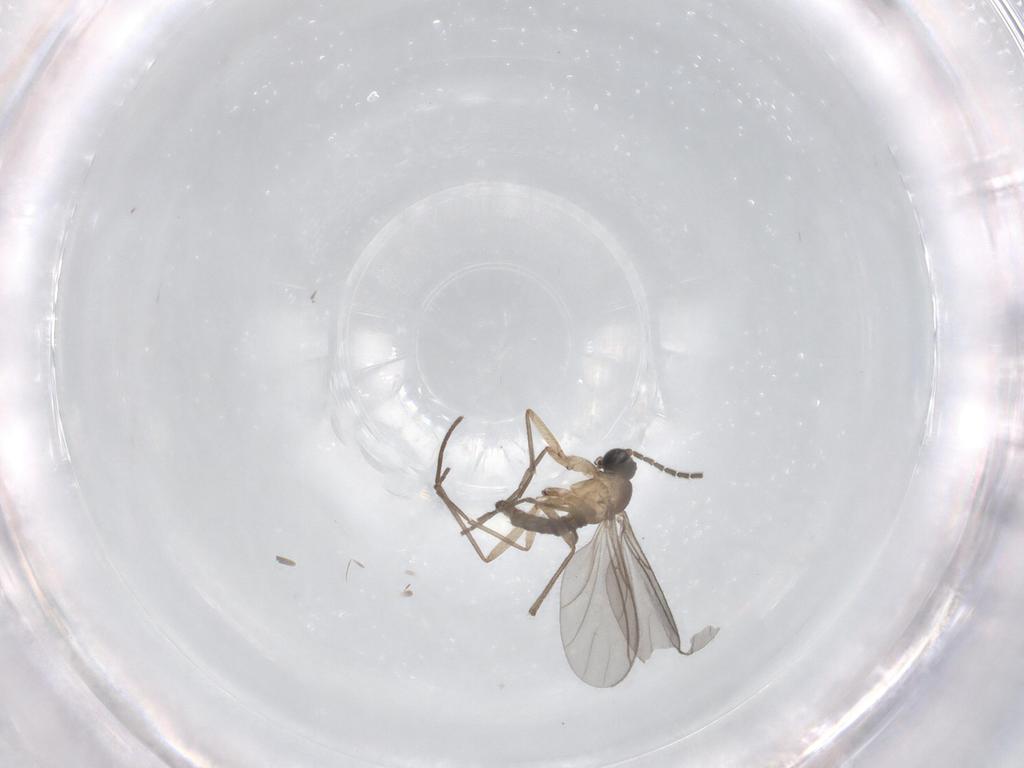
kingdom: Animalia
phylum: Arthropoda
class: Insecta
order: Diptera
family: Sciaridae
